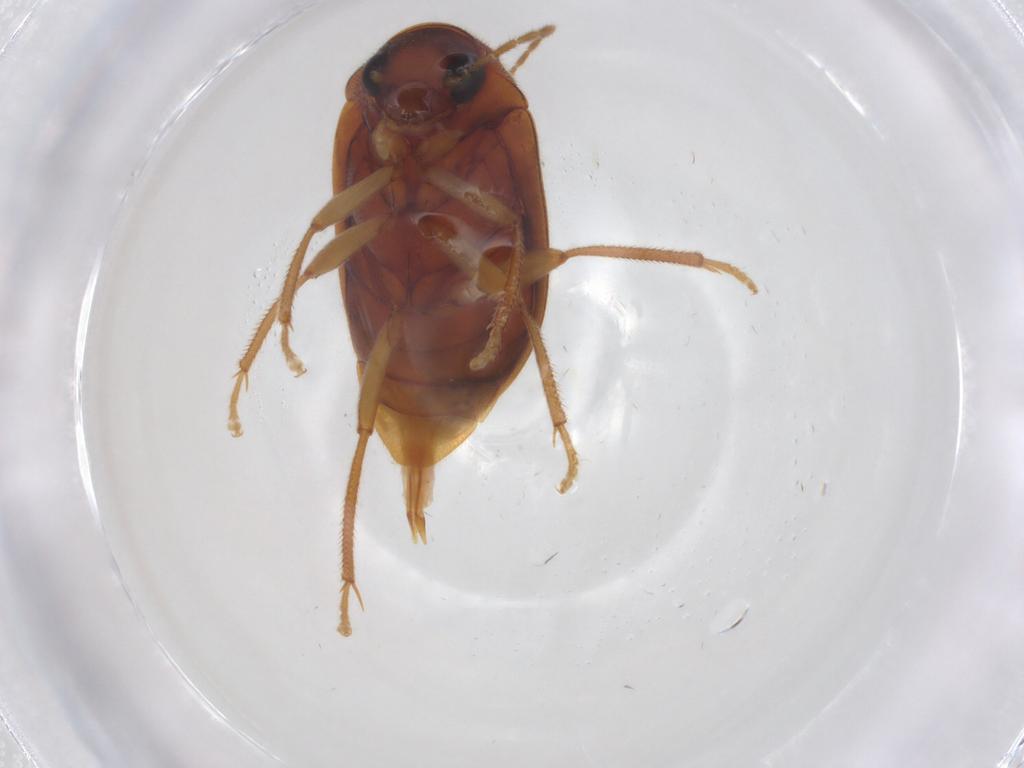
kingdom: Animalia
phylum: Arthropoda
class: Insecta
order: Coleoptera
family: Ptilodactylidae
